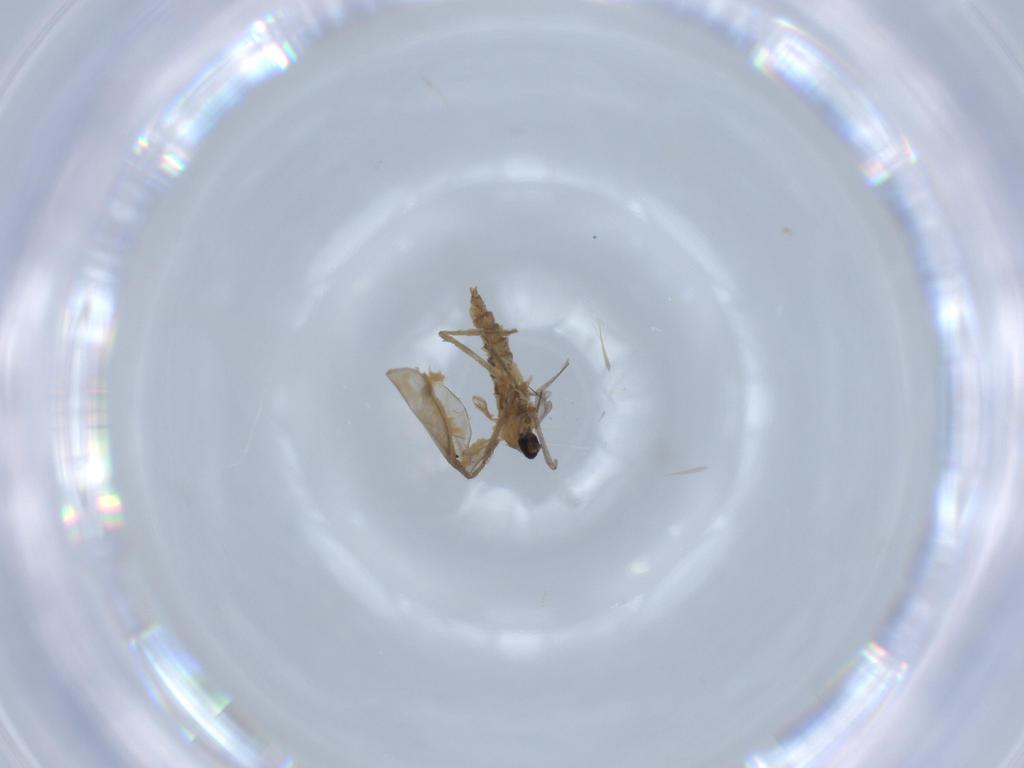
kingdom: Animalia
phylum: Arthropoda
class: Insecta
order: Diptera
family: Cecidomyiidae
